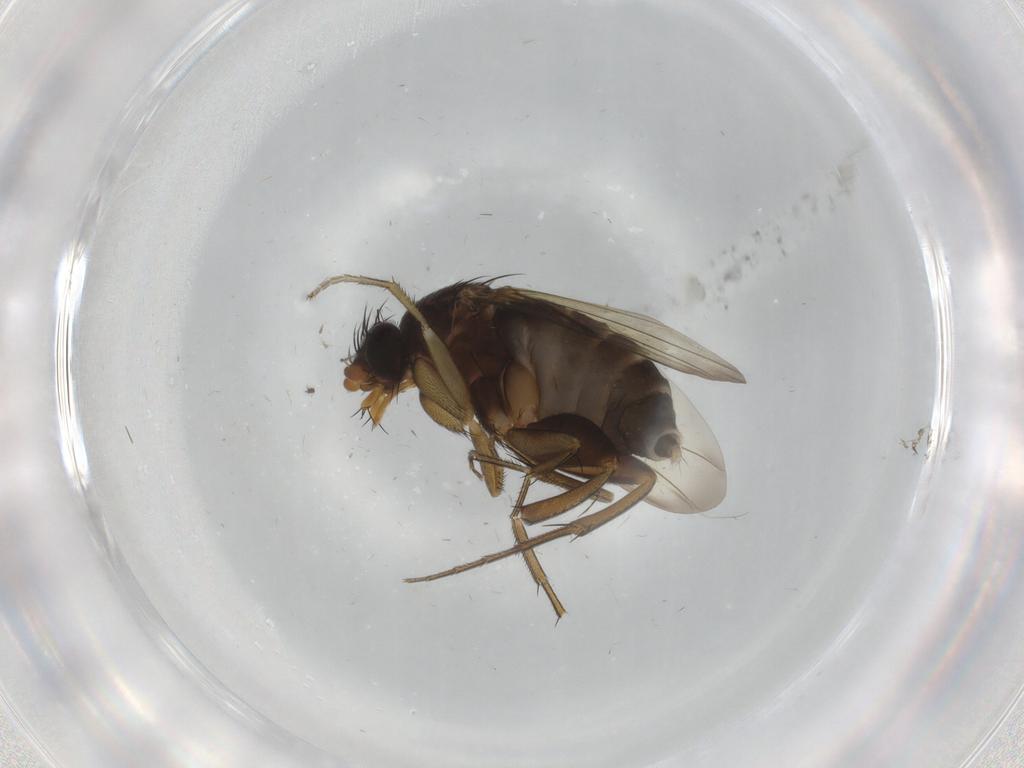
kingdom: Animalia
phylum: Arthropoda
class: Insecta
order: Diptera
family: Phoridae
